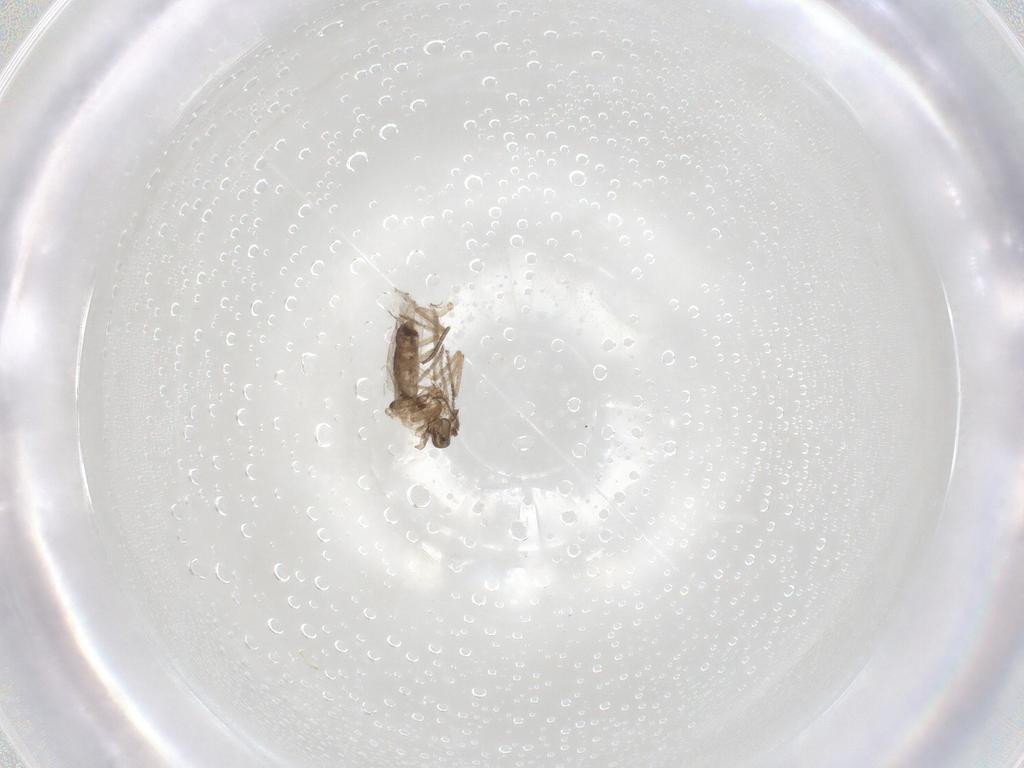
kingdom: Animalia
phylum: Arthropoda
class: Insecta
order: Diptera
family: Ceratopogonidae
